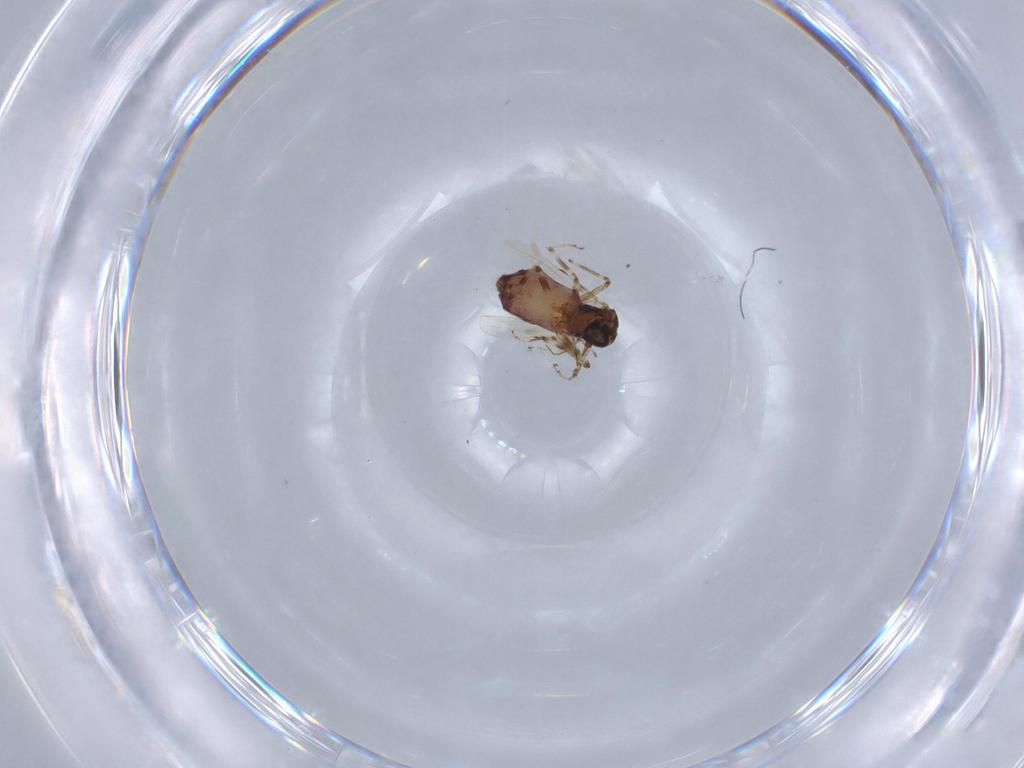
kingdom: Animalia
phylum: Arthropoda
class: Insecta
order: Diptera
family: Ceratopogonidae
